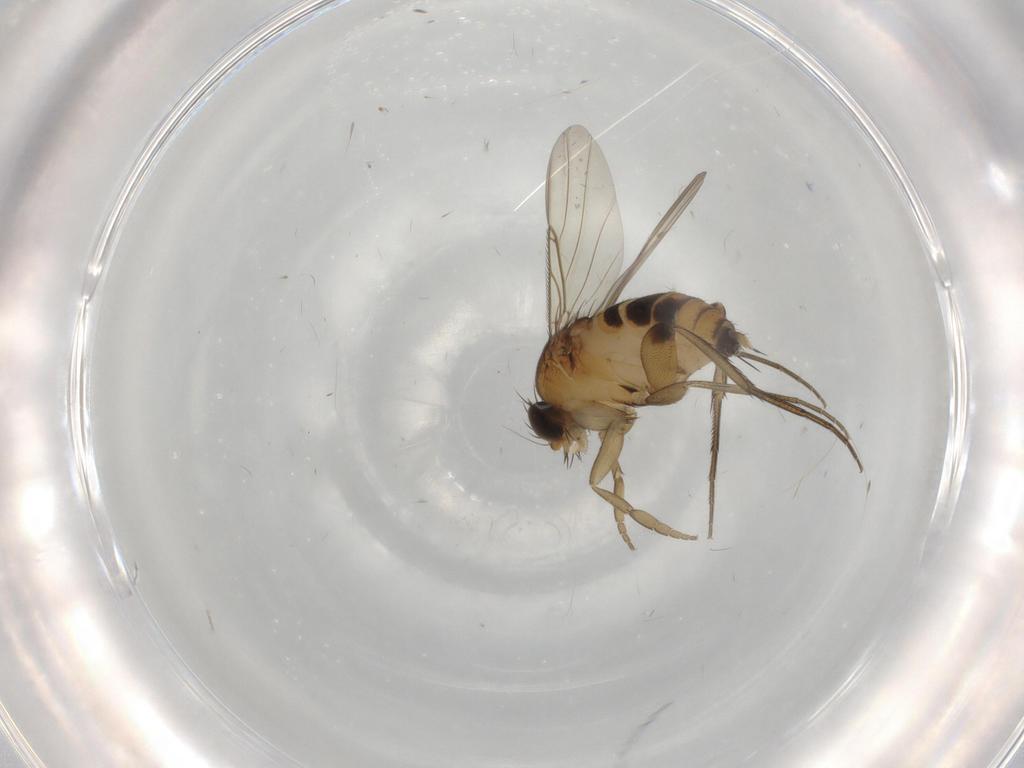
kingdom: Animalia
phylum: Arthropoda
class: Insecta
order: Diptera
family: Phoridae
